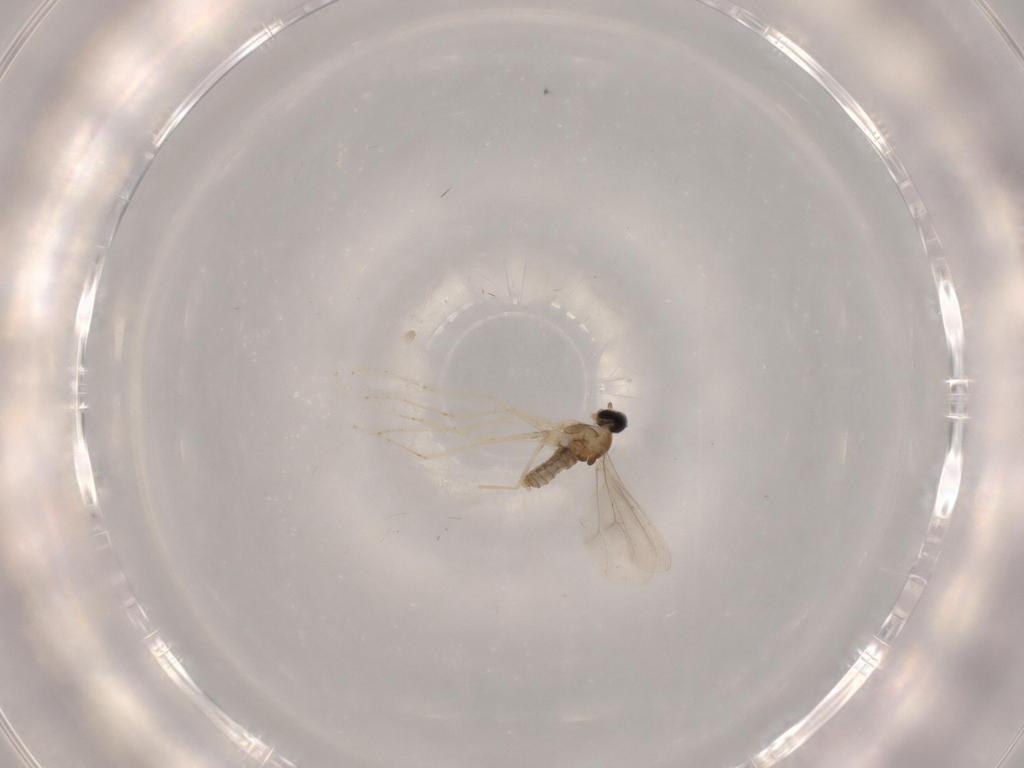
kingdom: Animalia
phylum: Arthropoda
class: Insecta
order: Diptera
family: Cecidomyiidae
